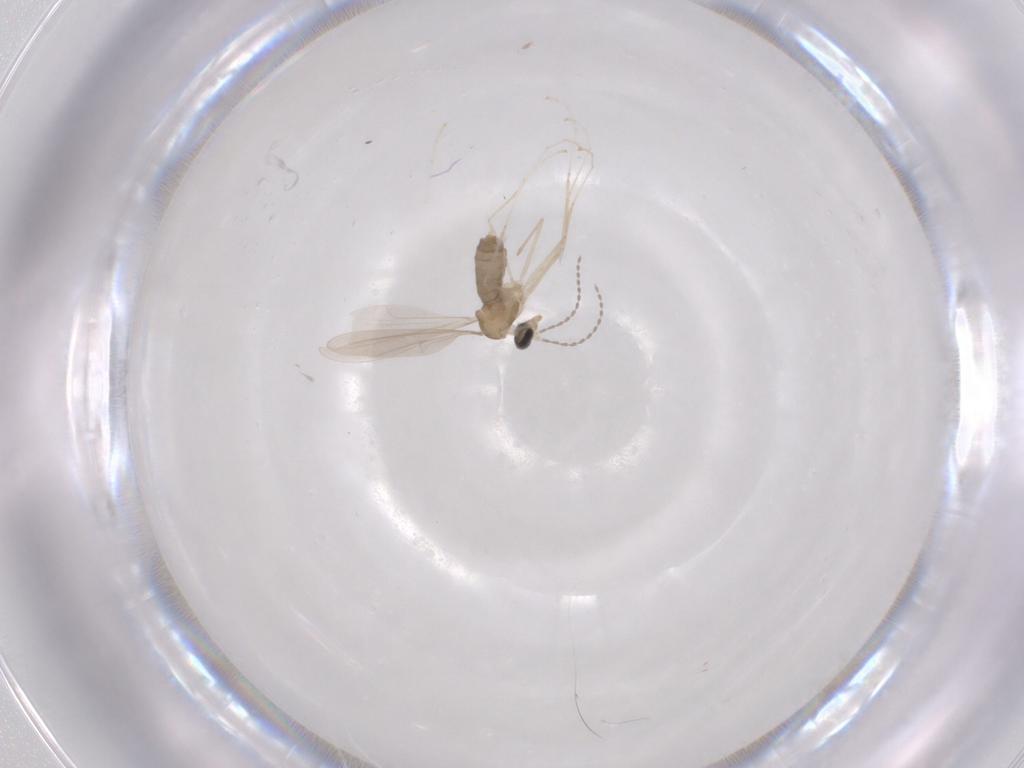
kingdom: Animalia
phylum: Arthropoda
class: Insecta
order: Diptera
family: Cecidomyiidae
